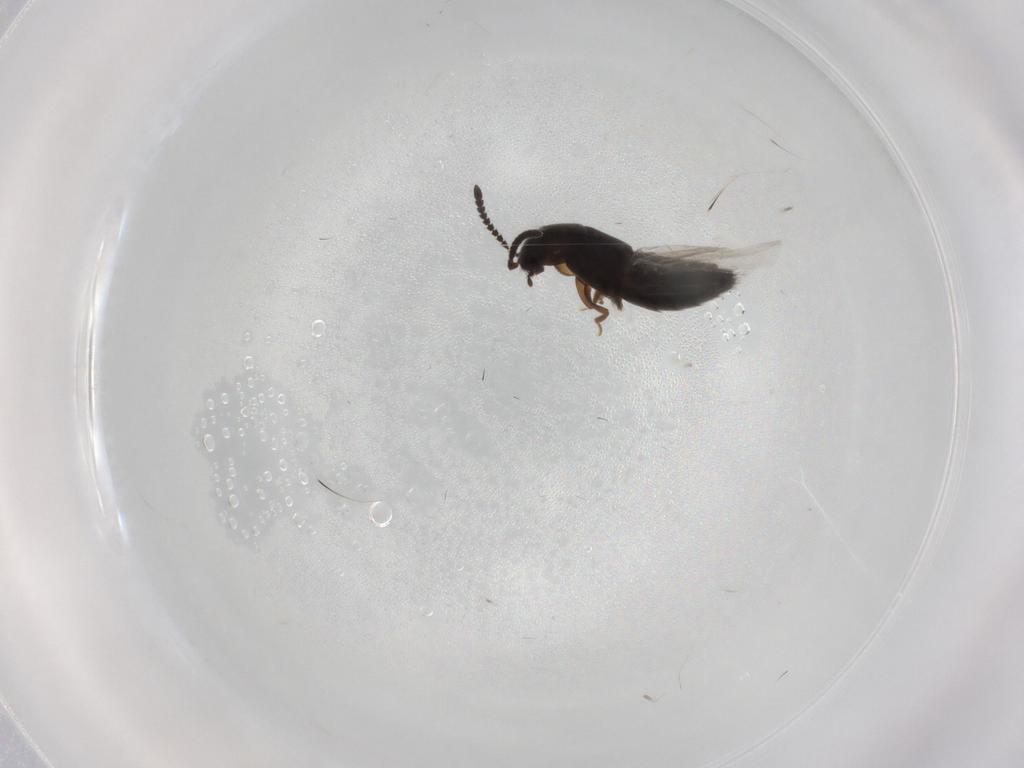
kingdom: Animalia
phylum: Arthropoda
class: Insecta
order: Coleoptera
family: Staphylinidae
